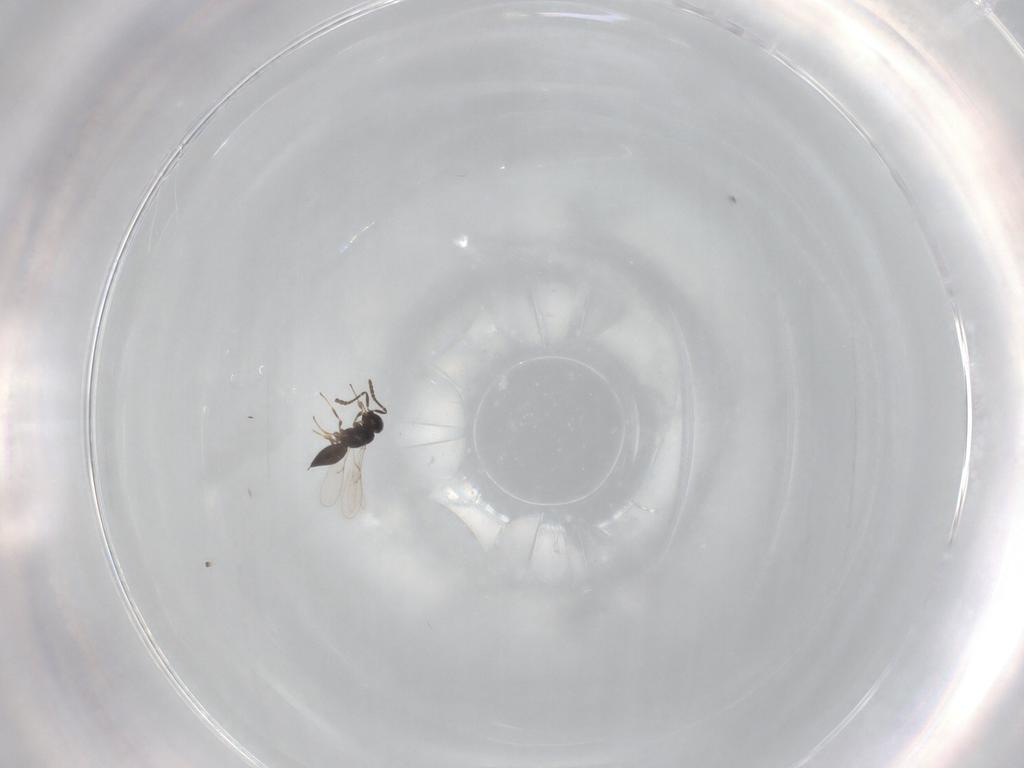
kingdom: Animalia
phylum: Arthropoda
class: Insecta
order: Hymenoptera
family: Scelionidae
